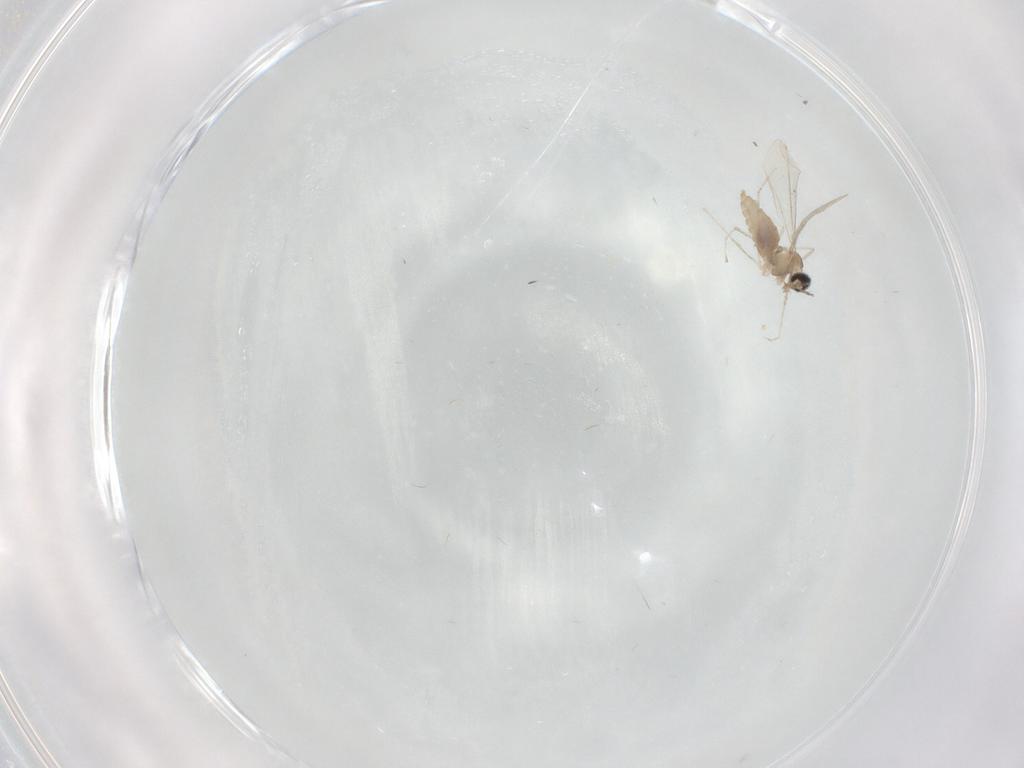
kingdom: Animalia
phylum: Arthropoda
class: Insecta
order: Diptera
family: Cecidomyiidae
